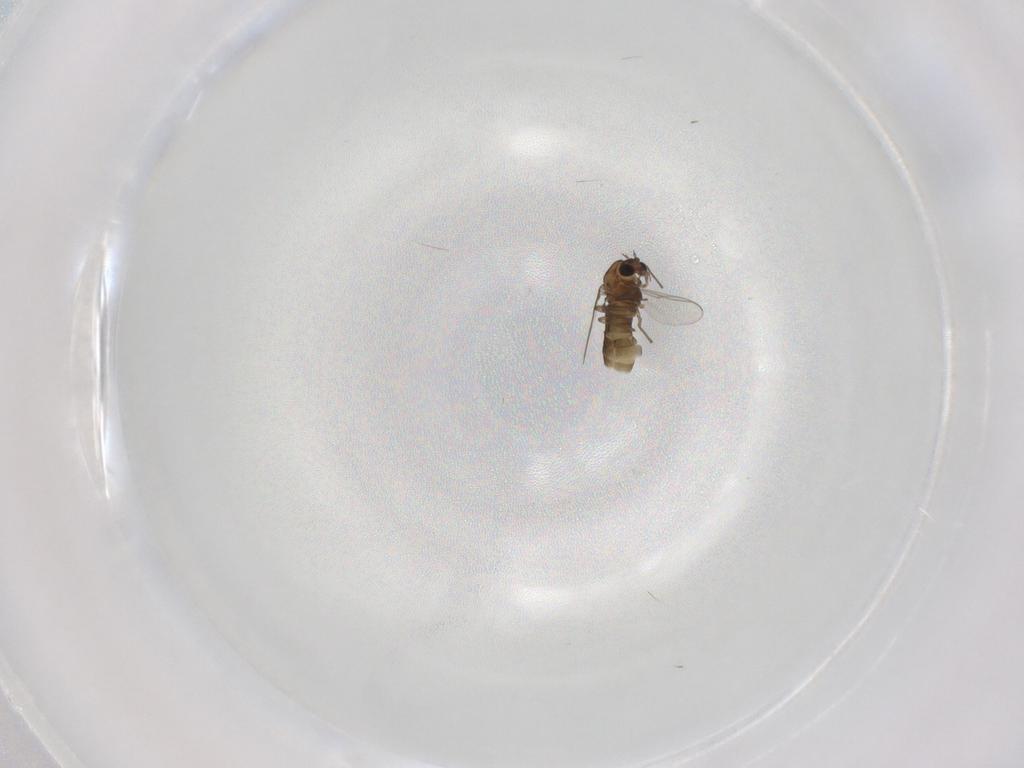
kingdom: Animalia
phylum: Arthropoda
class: Insecta
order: Diptera
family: Chironomidae
